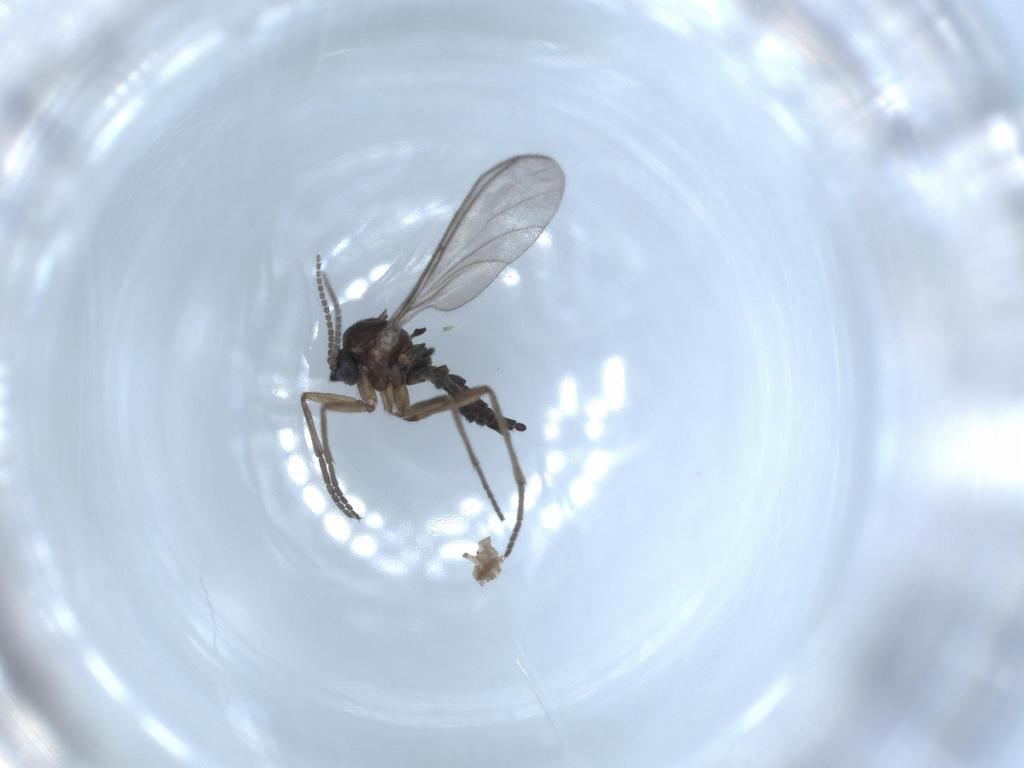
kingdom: Animalia
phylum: Arthropoda
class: Insecta
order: Diptera
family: Sciaridae
